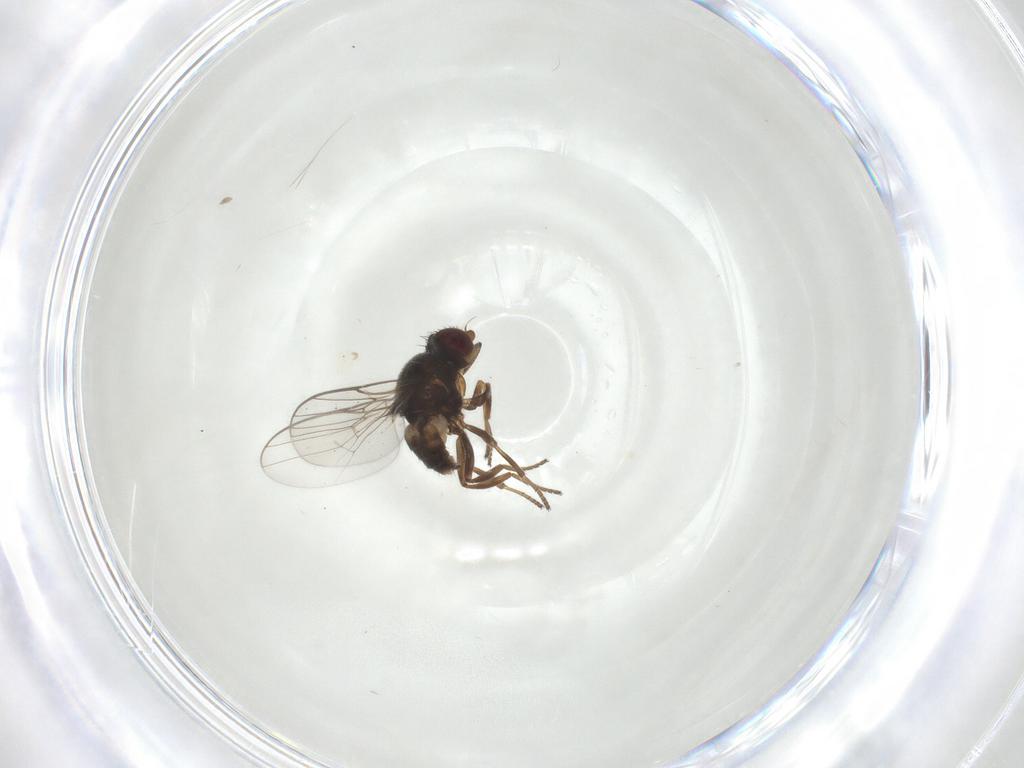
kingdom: Animalia
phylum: Arthropoda
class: Insecta
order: Diptera
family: Chloropidae
